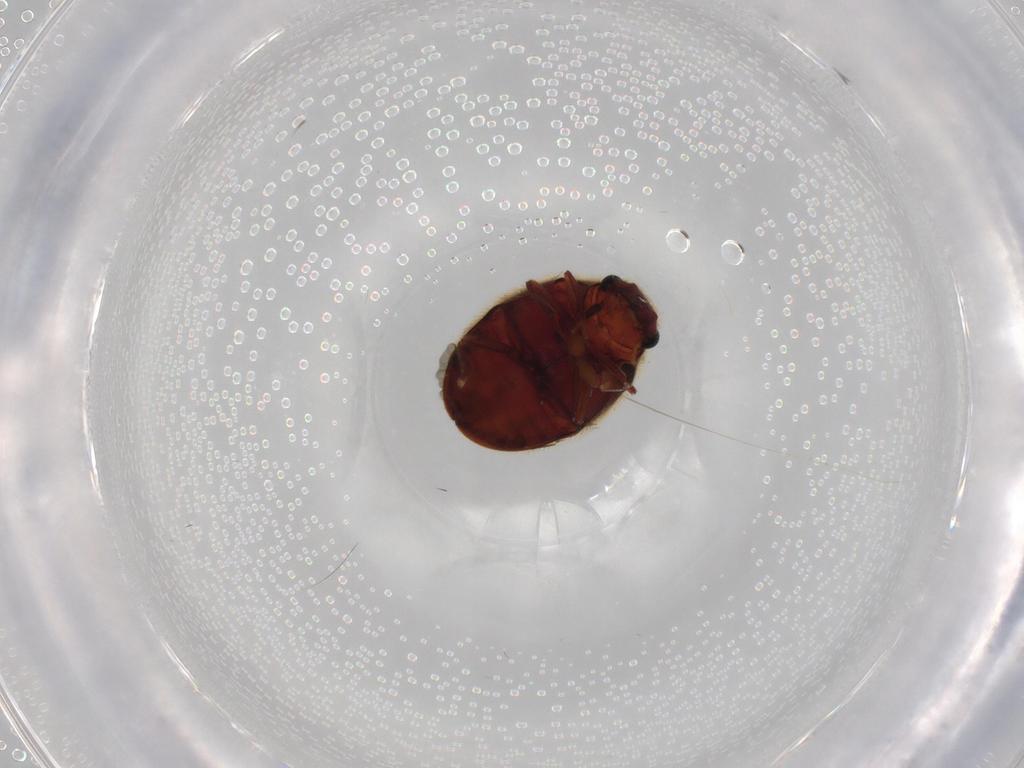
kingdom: Animalia
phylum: Arthropoda
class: Insecta
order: Coleoptera
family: Ptinidae
